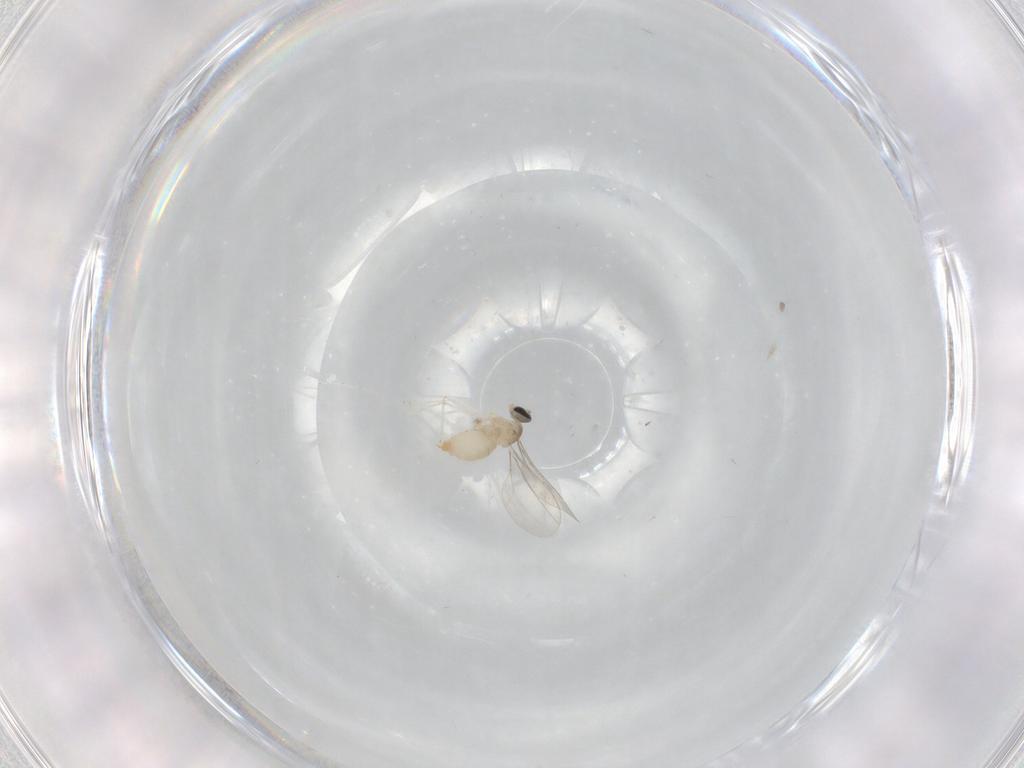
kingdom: Animalia
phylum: Arthropoda
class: Insecta
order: Diptera
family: Cecidomyiidae
